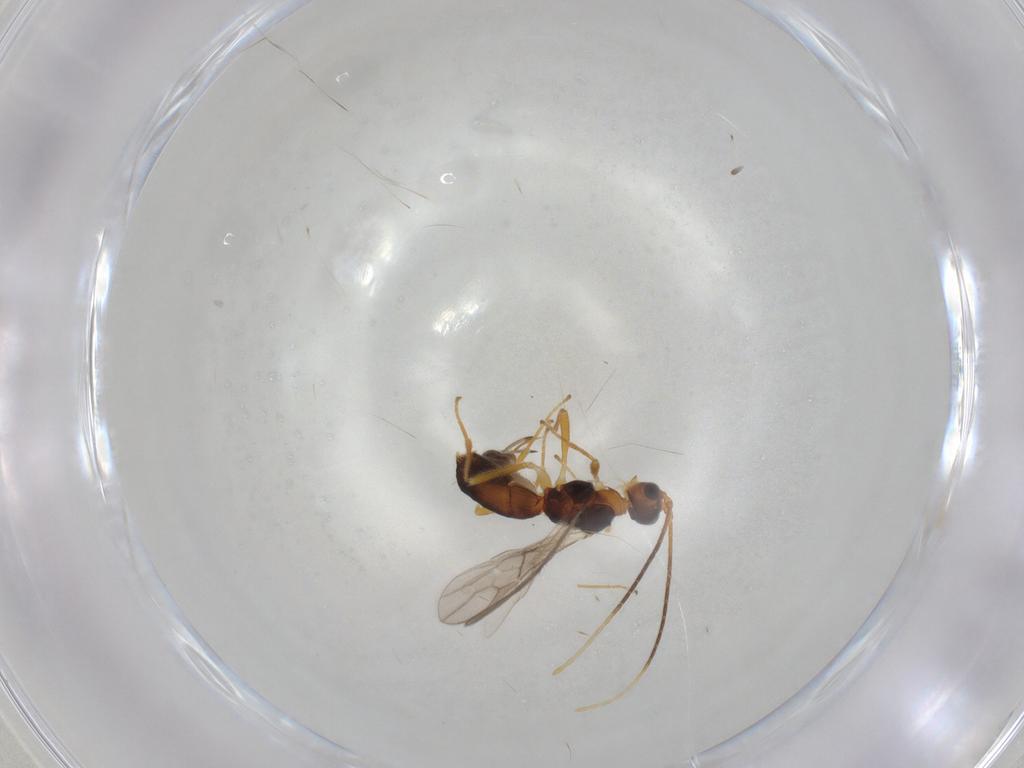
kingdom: Animalia
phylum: Arthropoda
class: Insecta
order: Hymenoptera
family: Braconidae
